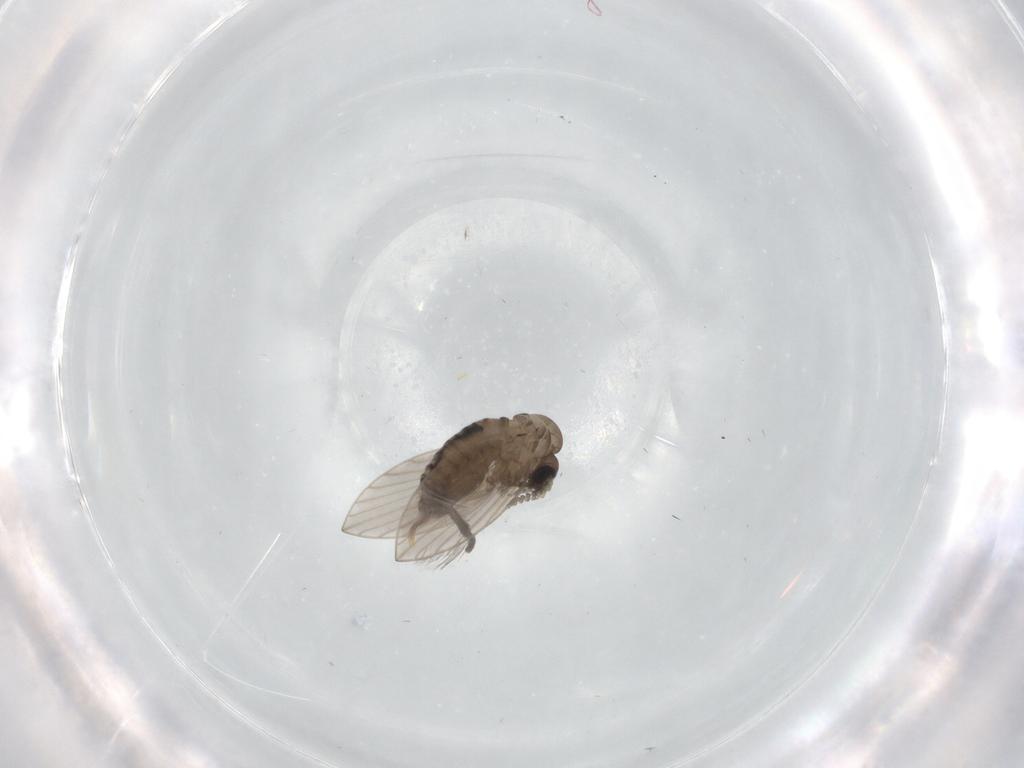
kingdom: Animalia
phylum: Arthropoda
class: Insecta
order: Diptera
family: Psychodidae
